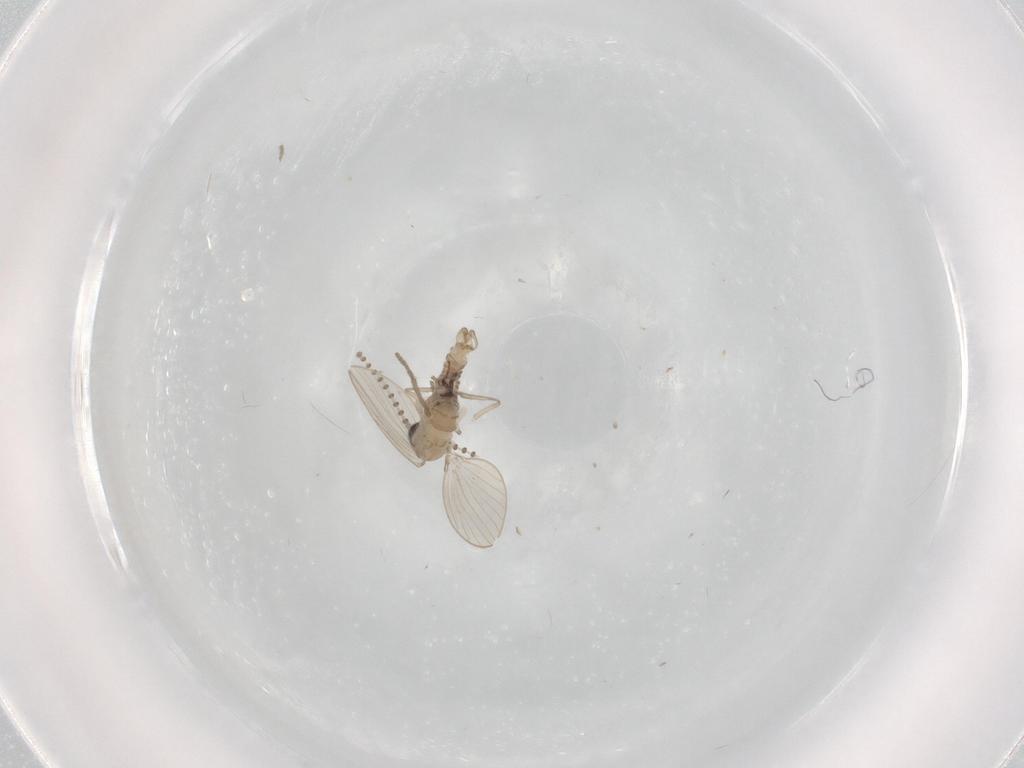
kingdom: Animalia
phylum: Arthropoda
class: Insecta
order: Diptera
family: Psychodidae
